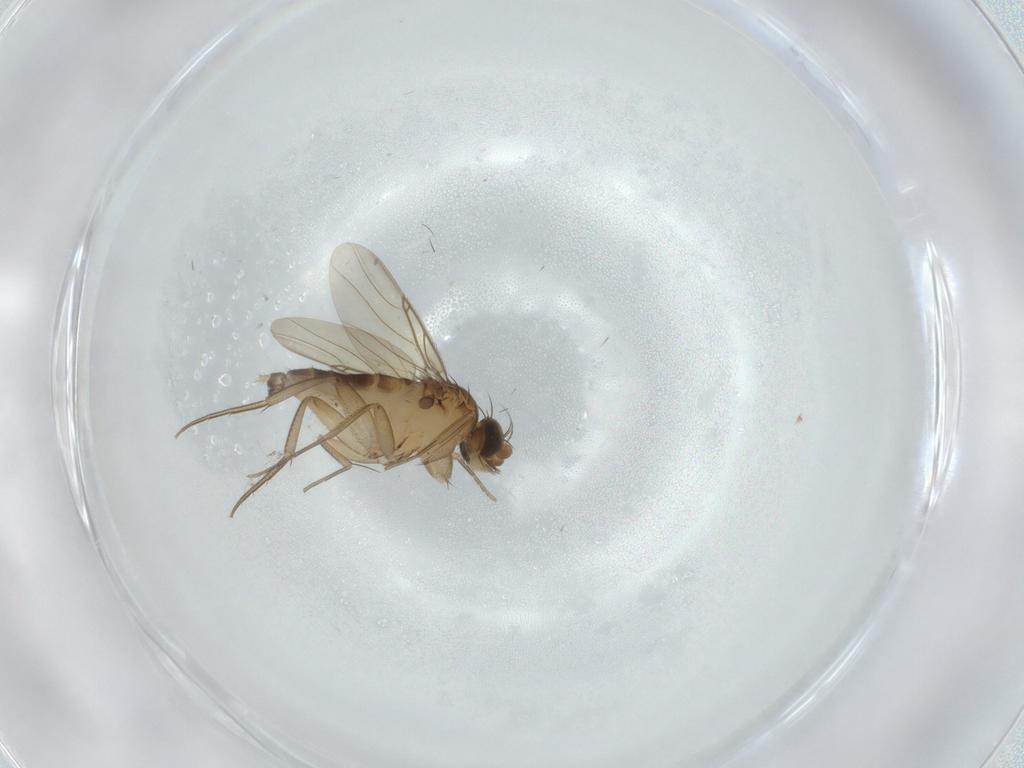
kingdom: Animalia
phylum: Arthropoda
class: Insecta
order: Diptera
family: Phoridae
